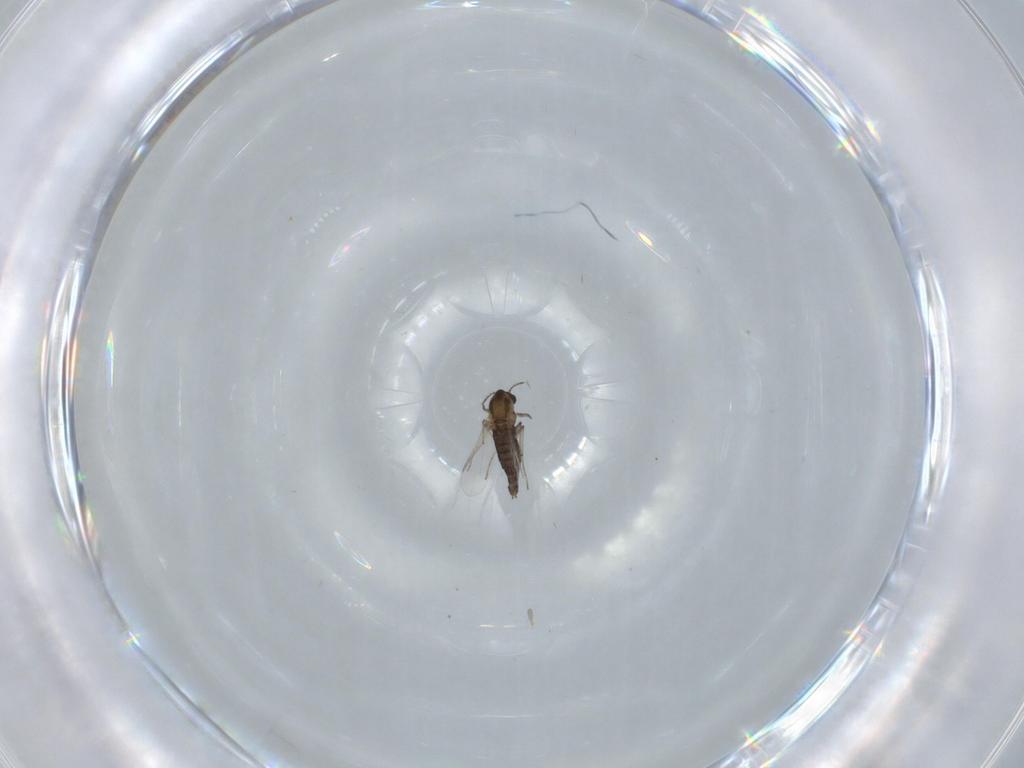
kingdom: Animalia
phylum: Arthropoda
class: Insecta
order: Diptera
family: Chironomidae
